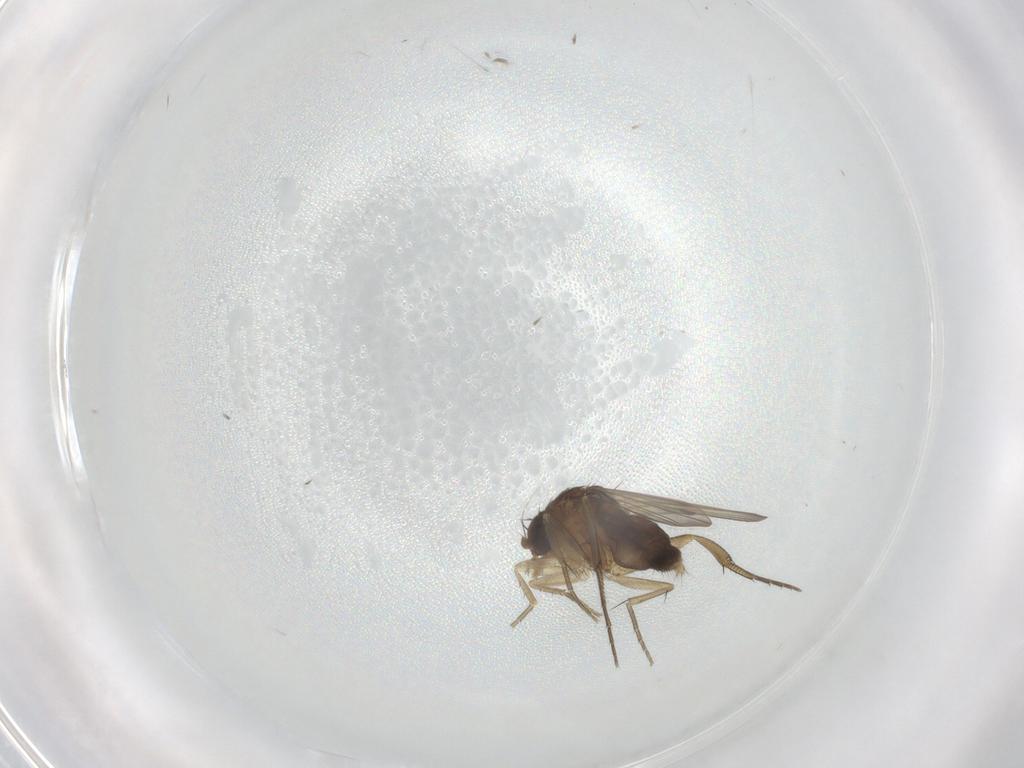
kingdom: Animalia
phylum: Arthropoda
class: Insecta
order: Diptera
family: Phoridae
